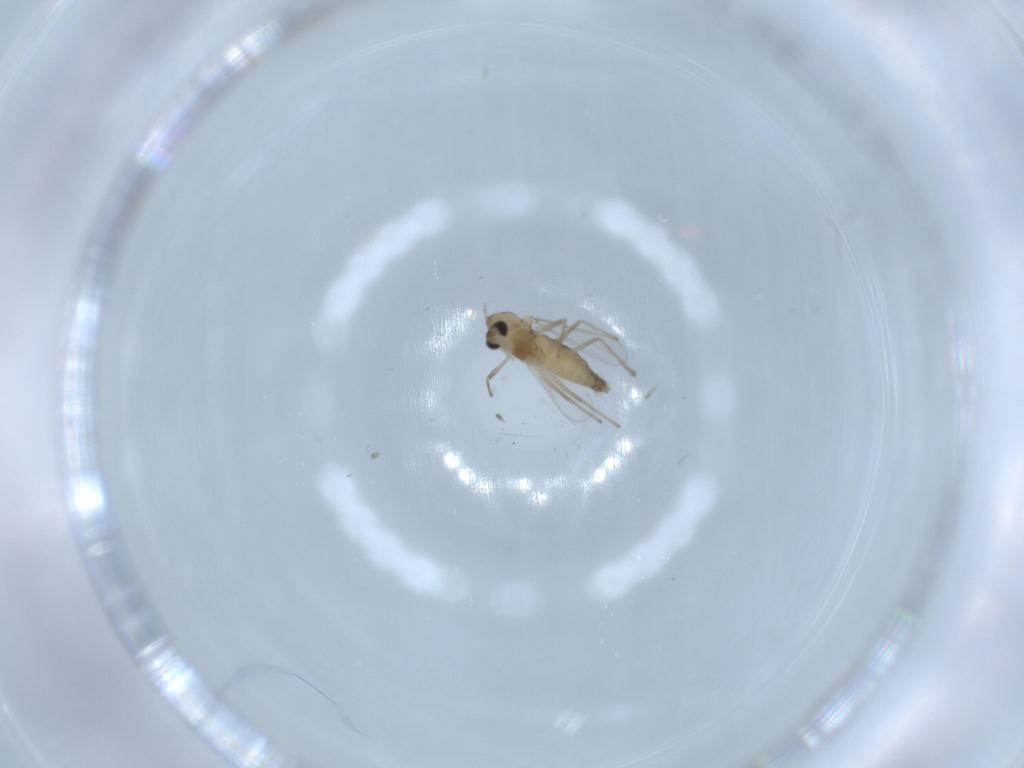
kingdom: Animalia
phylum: Arthropoda
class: Insecta
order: Diptera
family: Chironomidae
